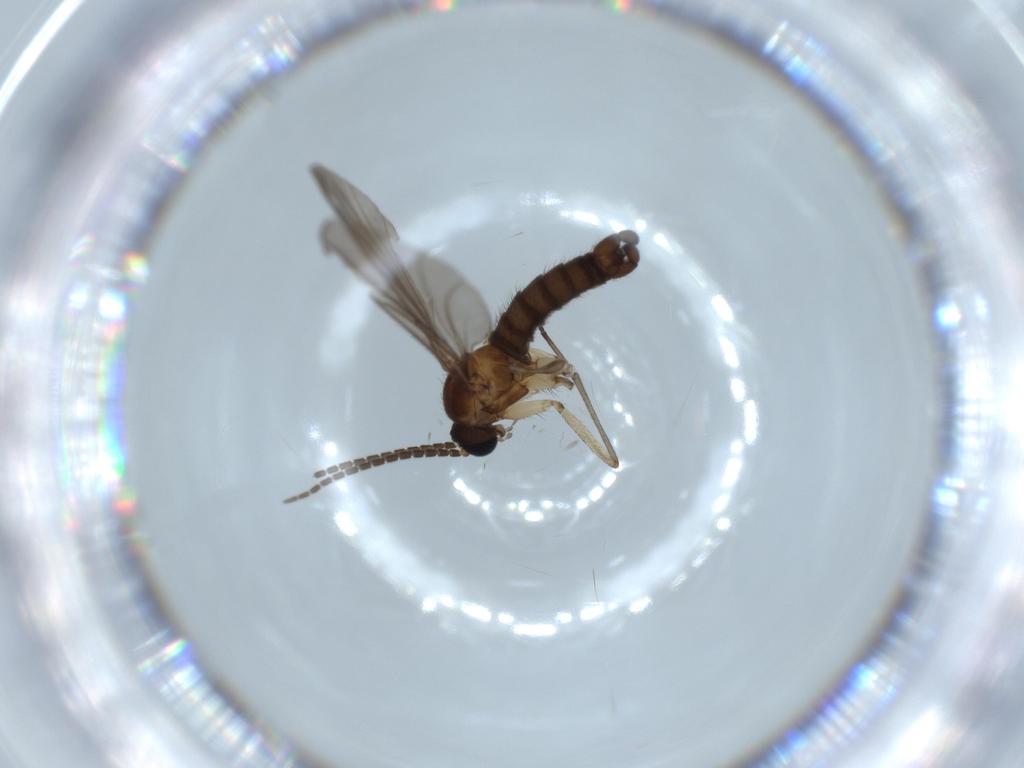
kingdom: Animalia
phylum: Arthropoda
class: Insecta
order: Diptera
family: Sciaridae
